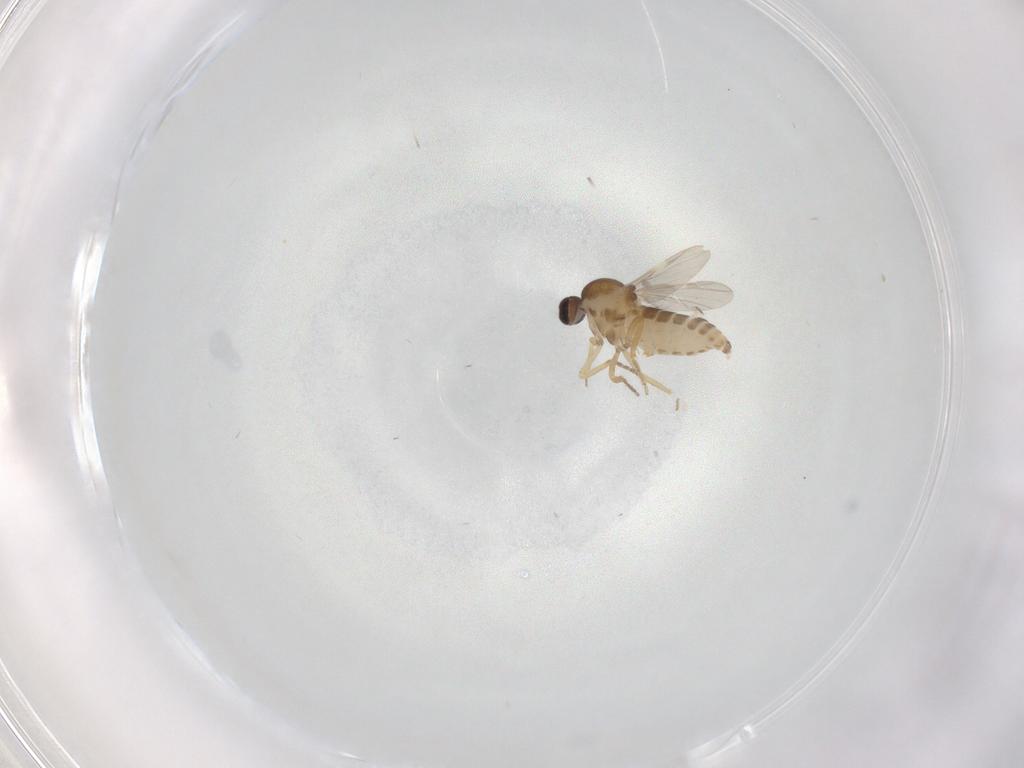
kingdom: Animalia
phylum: Arthropoda
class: Insecta
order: Diptera
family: Ceratopogonidae
